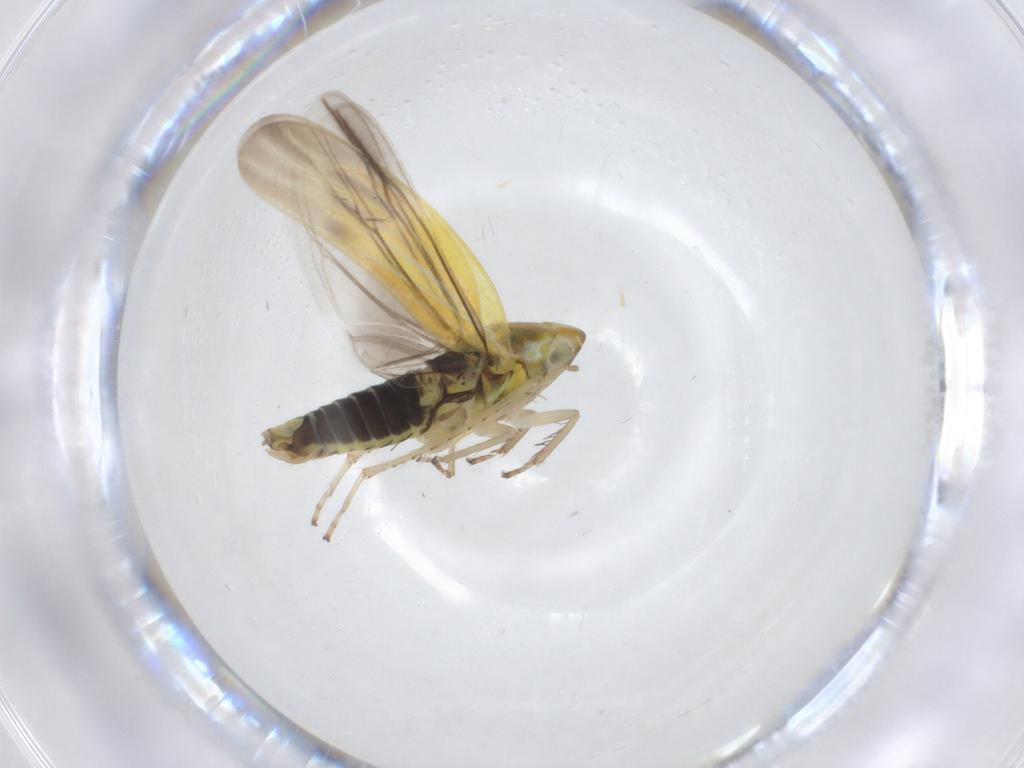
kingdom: Animalia
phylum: Arthropoda
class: Insecta
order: Hemiptera
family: Cicadellidae
